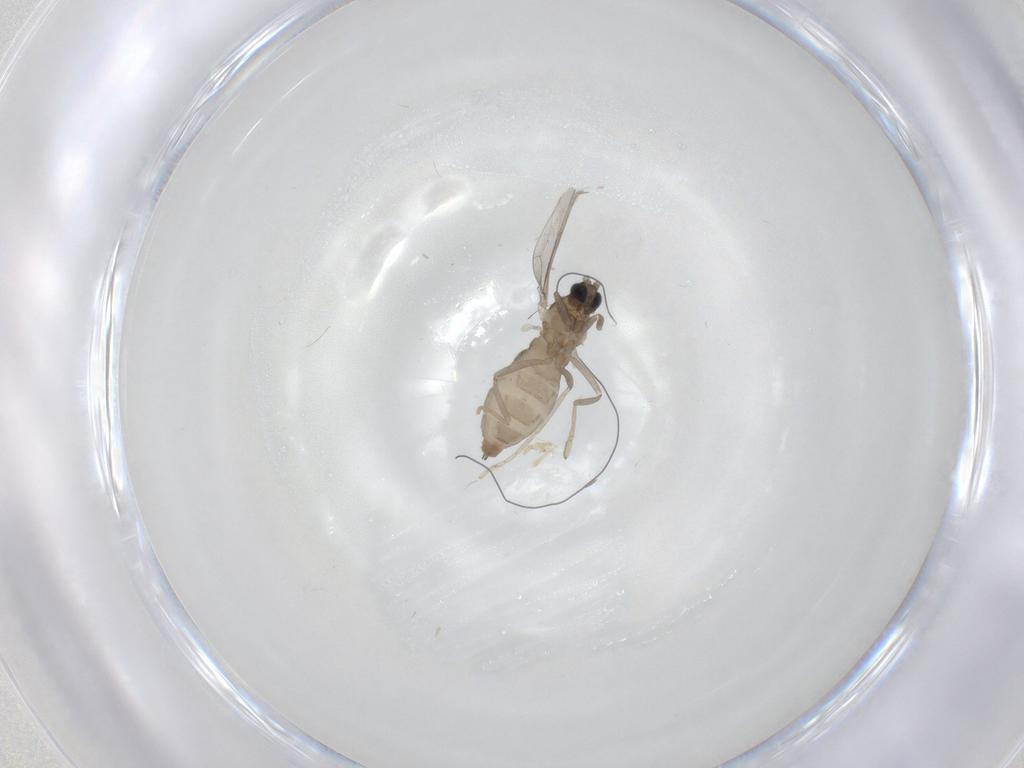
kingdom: Animalia
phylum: Arthropoda
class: Insecta
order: Diptera
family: Cecidomyiidae
